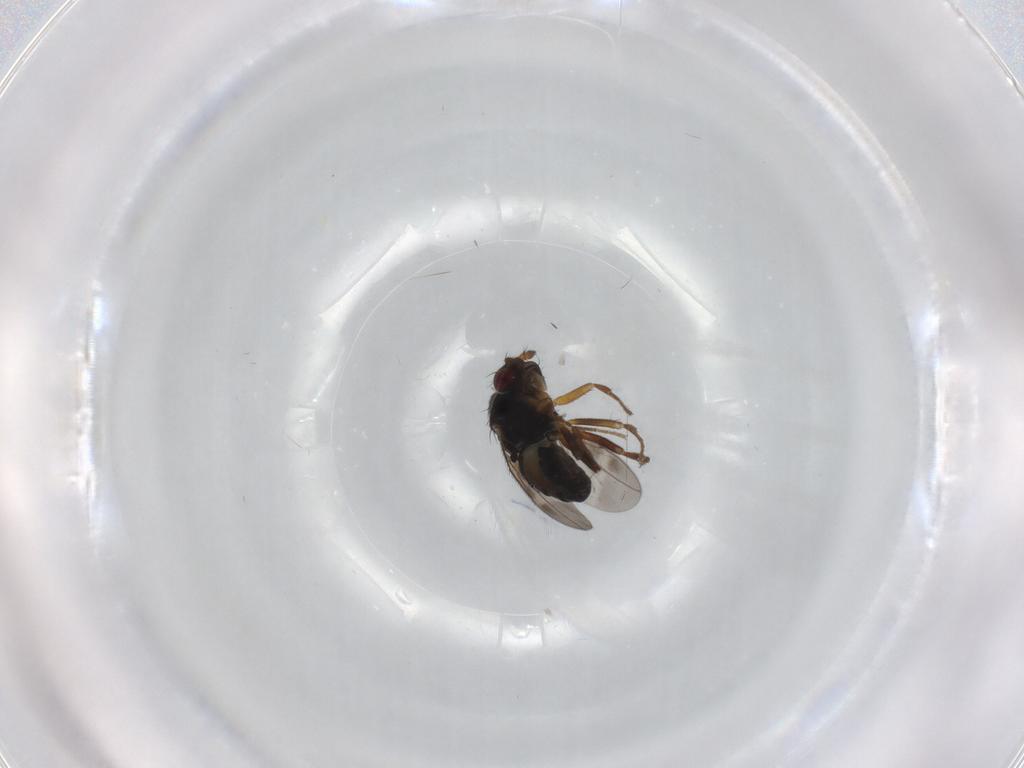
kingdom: Animalia
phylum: Arthropoda
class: Insecta
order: Diptera
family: Sphaeroceridae
